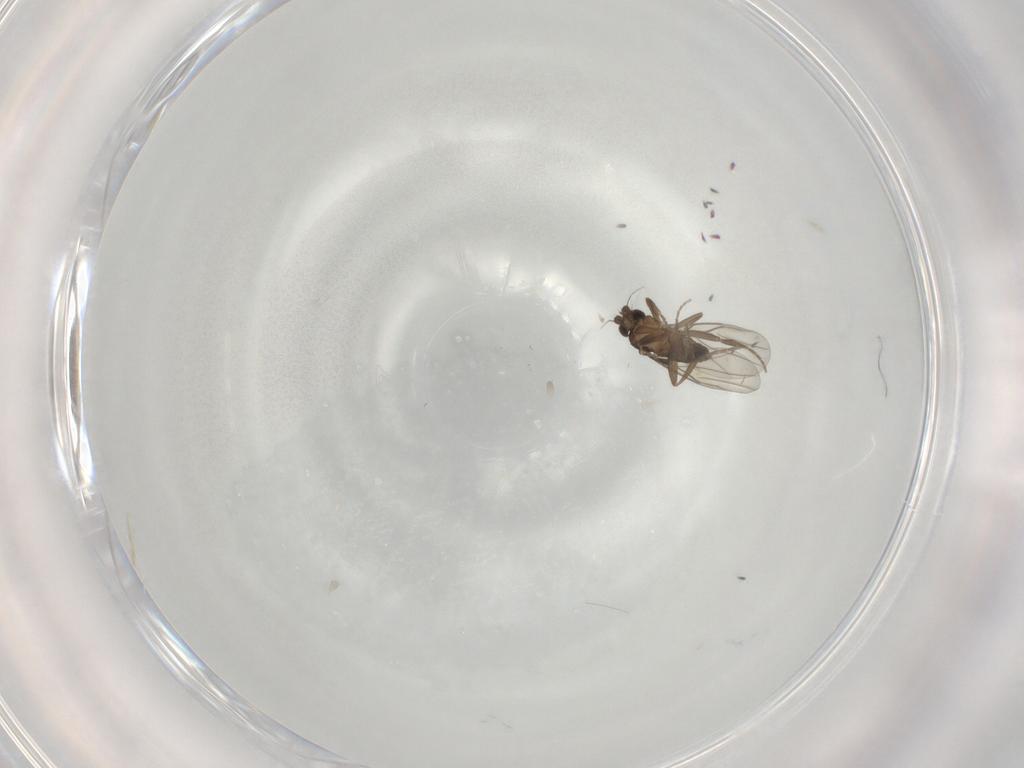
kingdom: Animalia
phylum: Arthropoda
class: Insecta
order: Diptera
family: Phoridae
